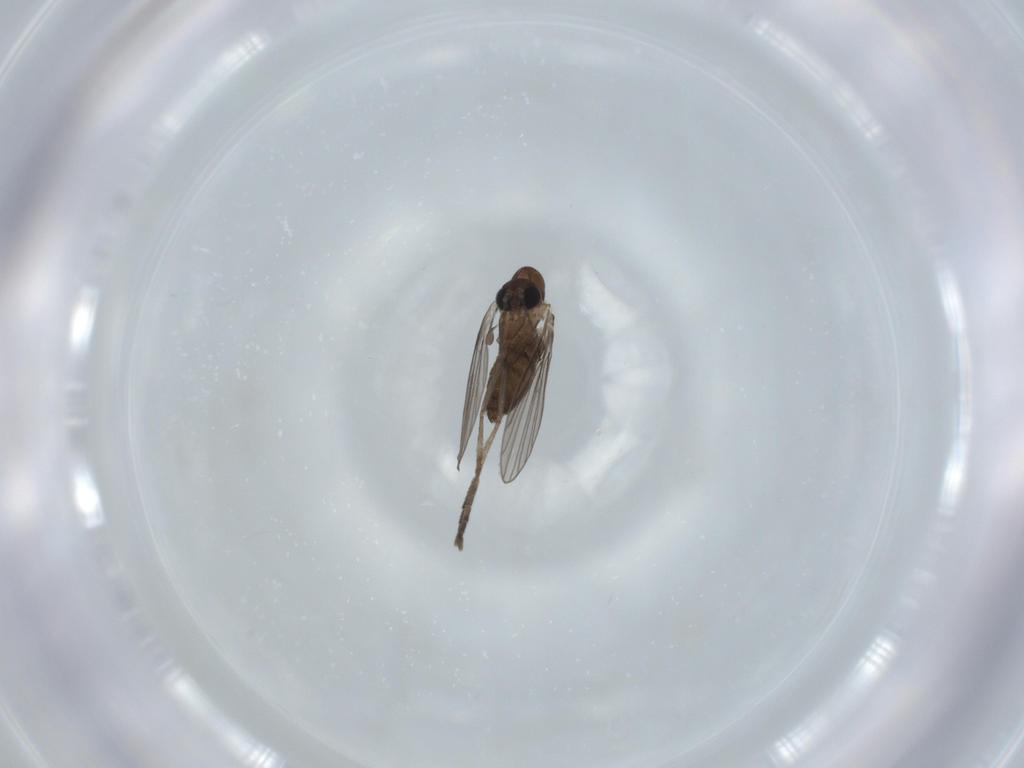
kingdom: Animalia
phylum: Arthropoda
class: Insecta
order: Diptera
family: Psychodidae
